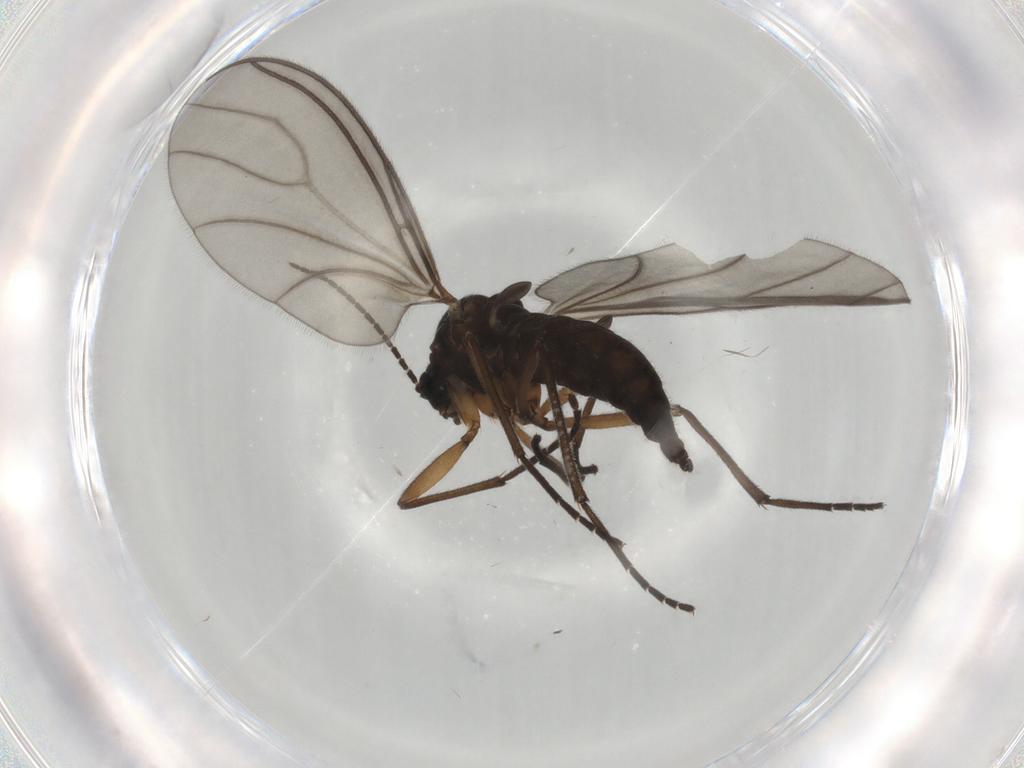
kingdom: Animalia
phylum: Arthropoda
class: Insecta
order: Diptera
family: Sciaridae
